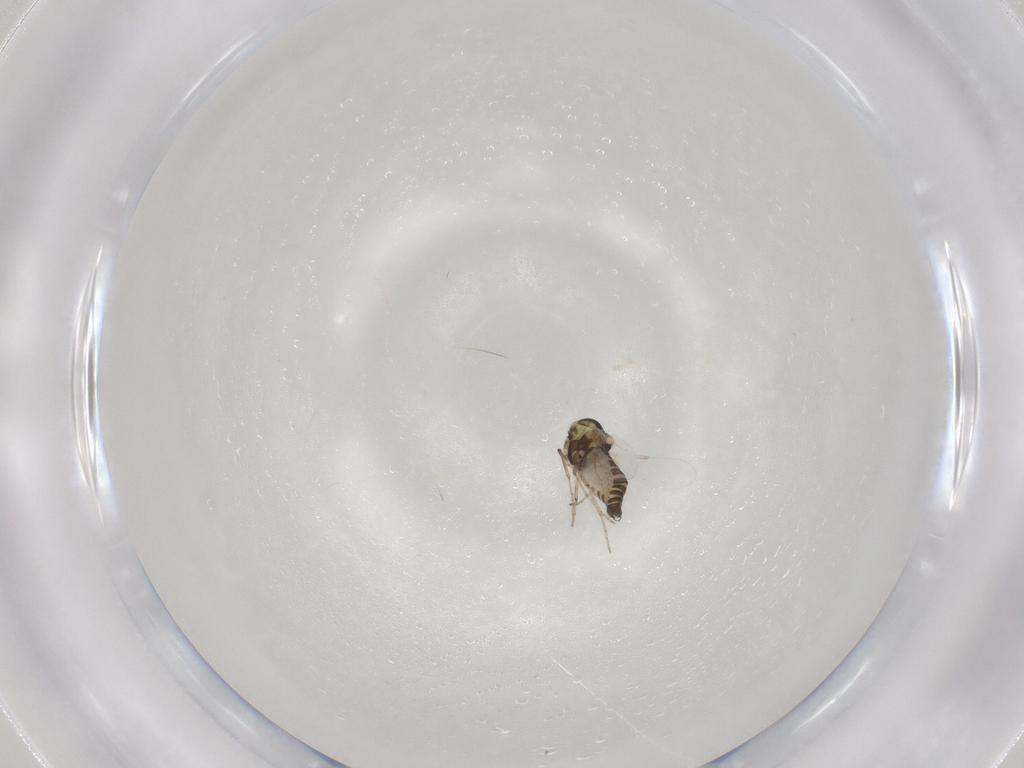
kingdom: Animalia
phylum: Arthropoda
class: Insecta
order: Diptera
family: Ceratopogonidae
